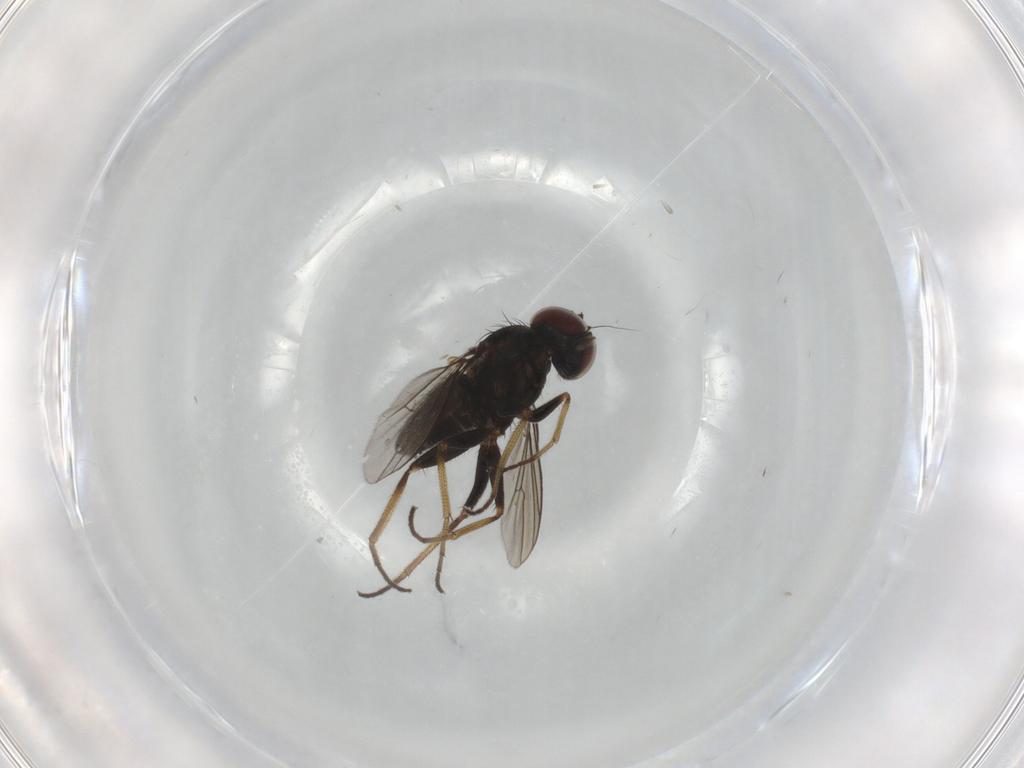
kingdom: Animalia
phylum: Arthropoda
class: Insecta
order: Diptera
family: Dolichopodidae
